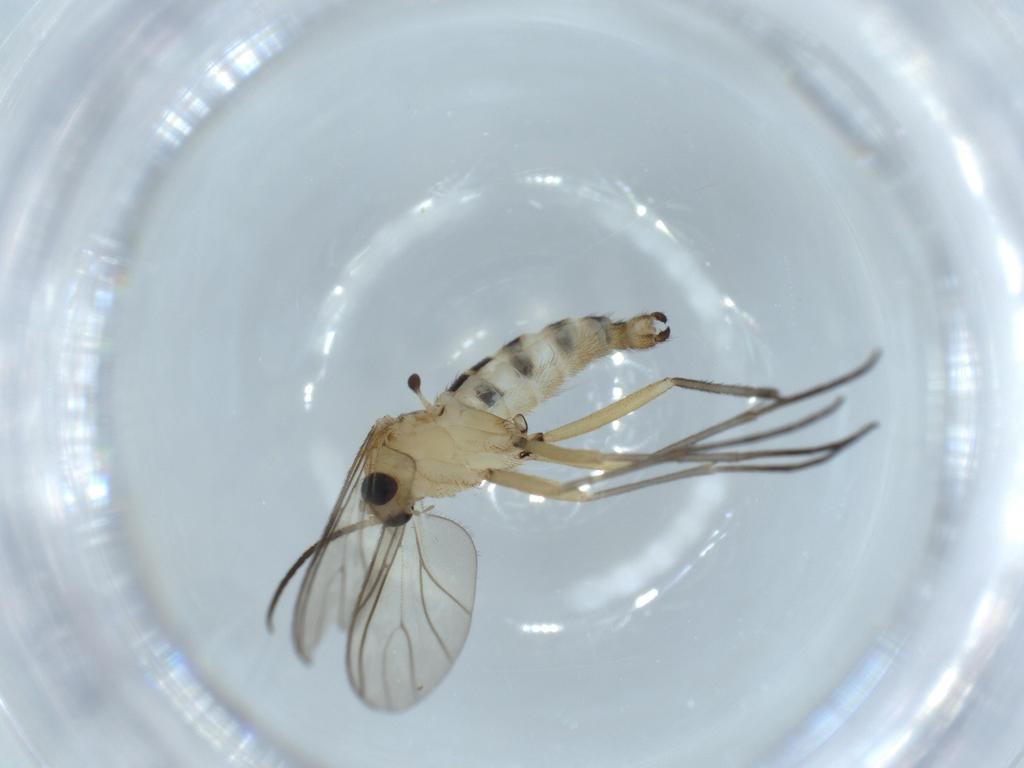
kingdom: Animalia
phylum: Arthropoda
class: Insecta
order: Diptera
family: Sciaridae
